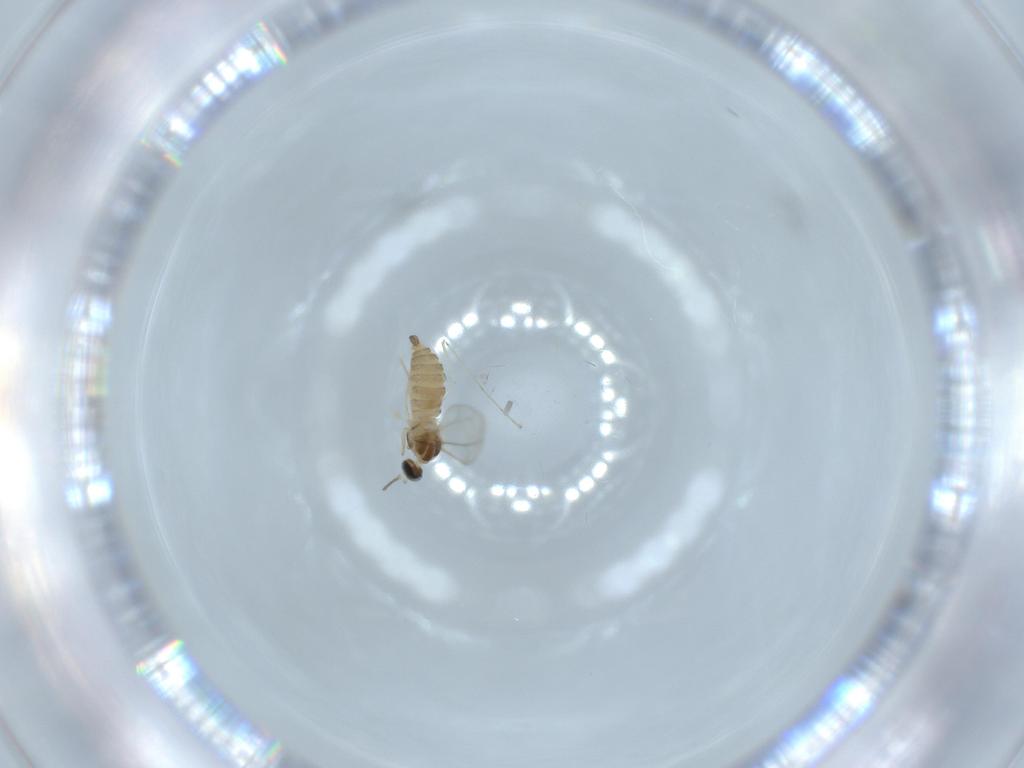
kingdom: Animalia
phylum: Arthropoda
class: Insecta
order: Diptera
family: Cecidomyiidae
